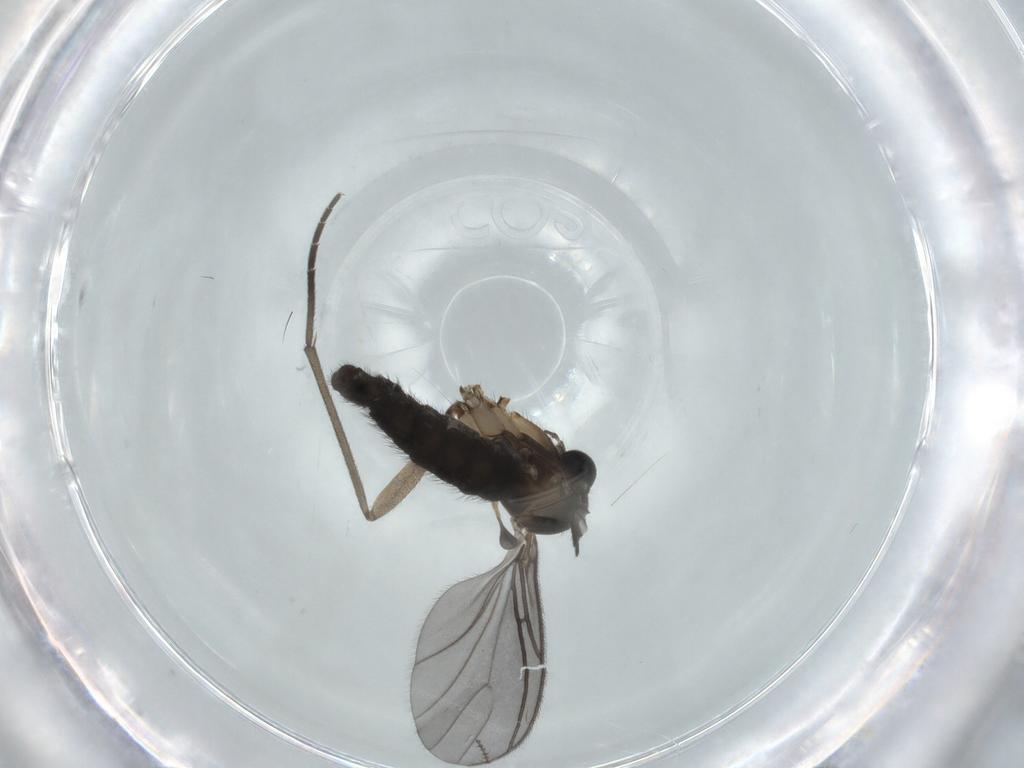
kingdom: Animalia
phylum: Arthropoda
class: Insecta
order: Diptera
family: Sciaridae
